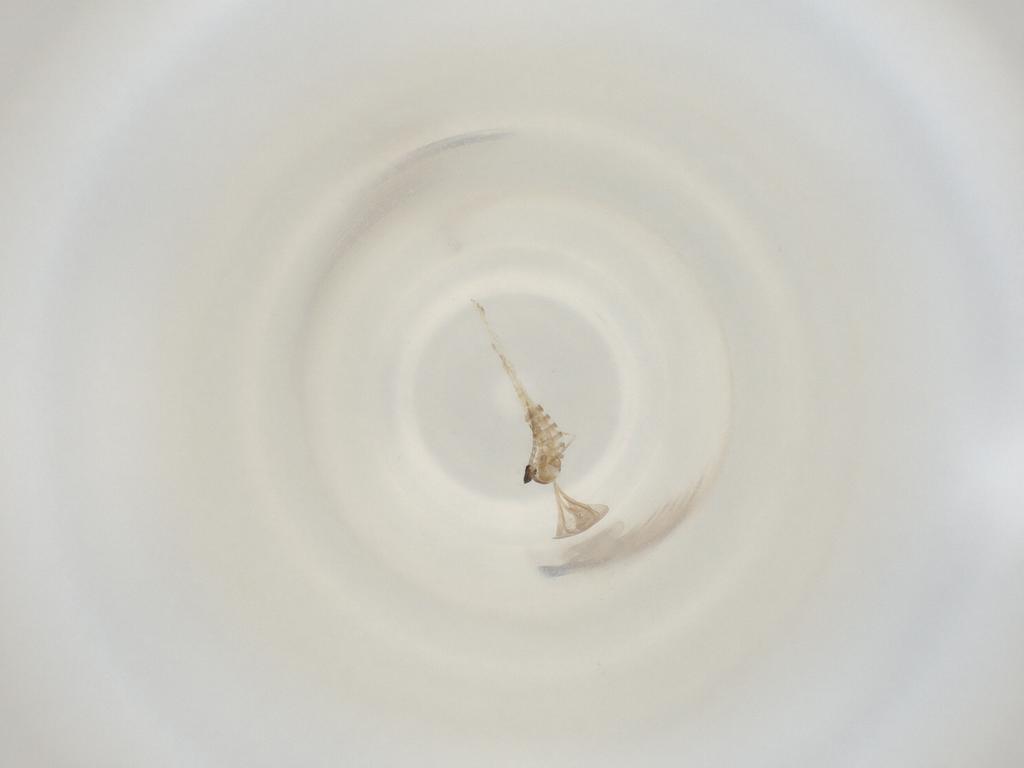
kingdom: Animalia
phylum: Arthropoda
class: Insecta
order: Diptera
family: Cecidomyiidae
